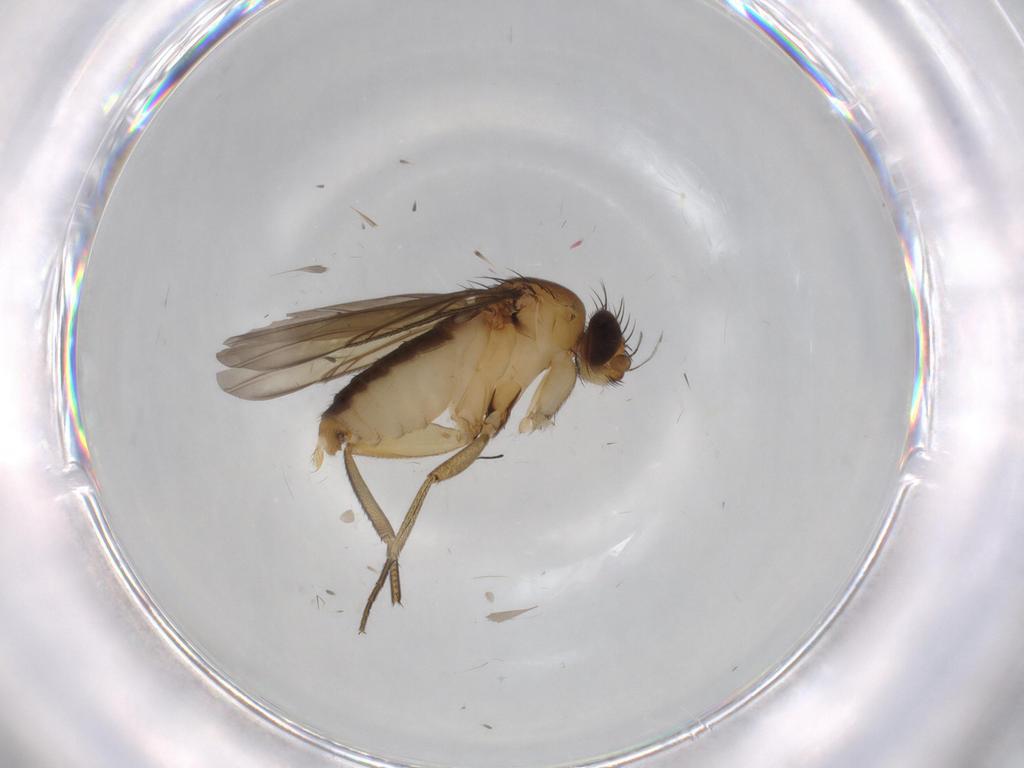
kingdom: Animalia
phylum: Arthropoda
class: Insecta
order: Diptera
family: Phoridae
